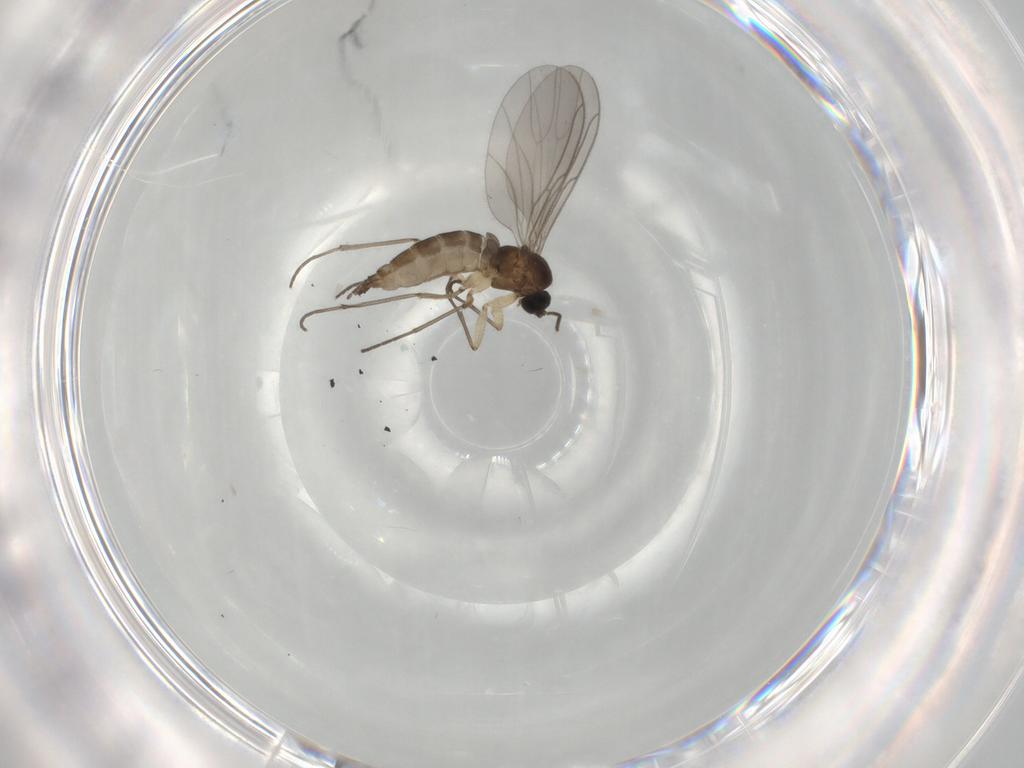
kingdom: Animalia
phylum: Arthropoda
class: Insecta
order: Diptera
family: Sciaridae
